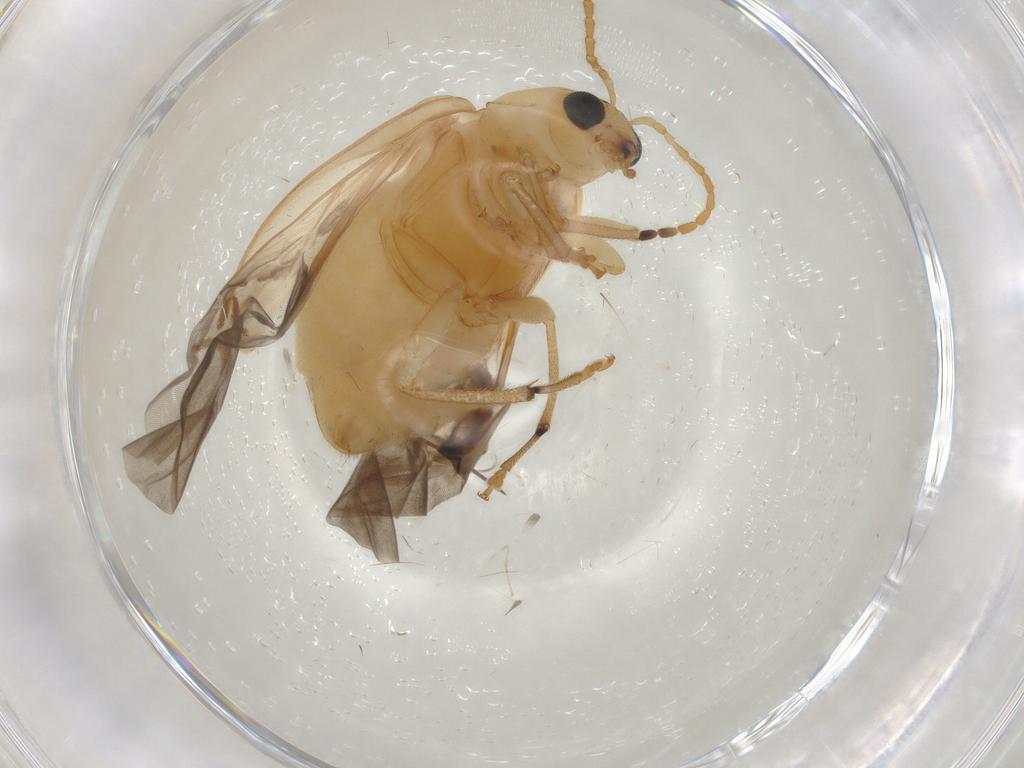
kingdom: Animalia
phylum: Arthropoda
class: Insecta
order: Coleoptera
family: Chrysomelidae
